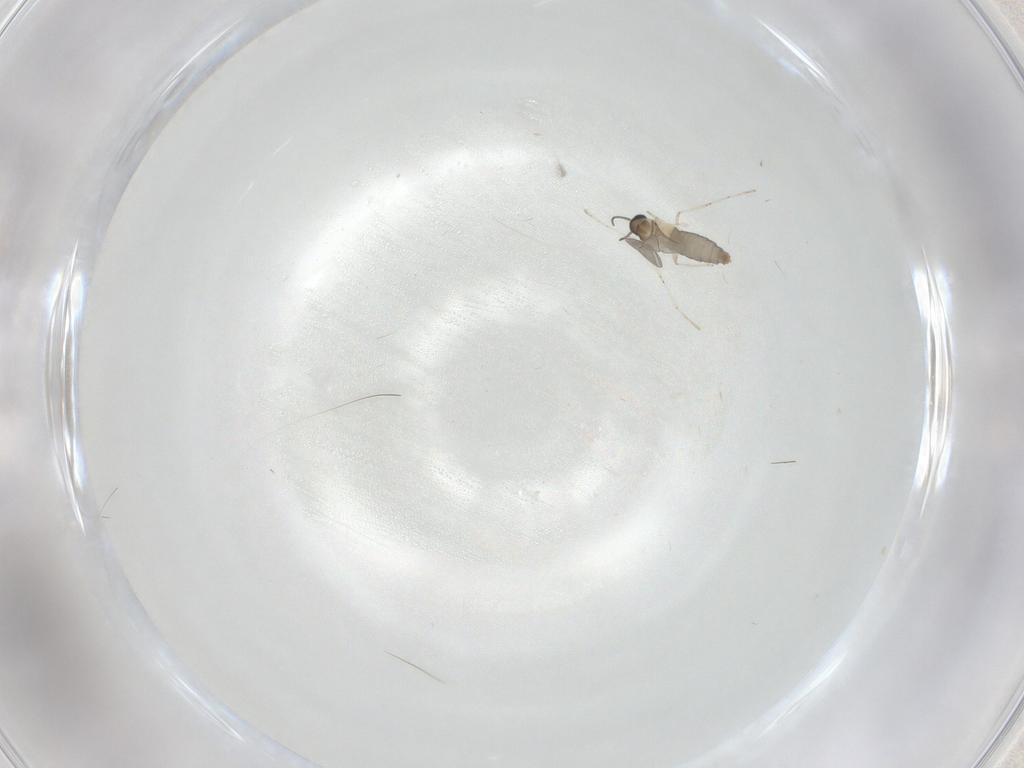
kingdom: Animalia
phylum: Arthropoda
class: Insecta
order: Diptera
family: Cecidomyiidae
